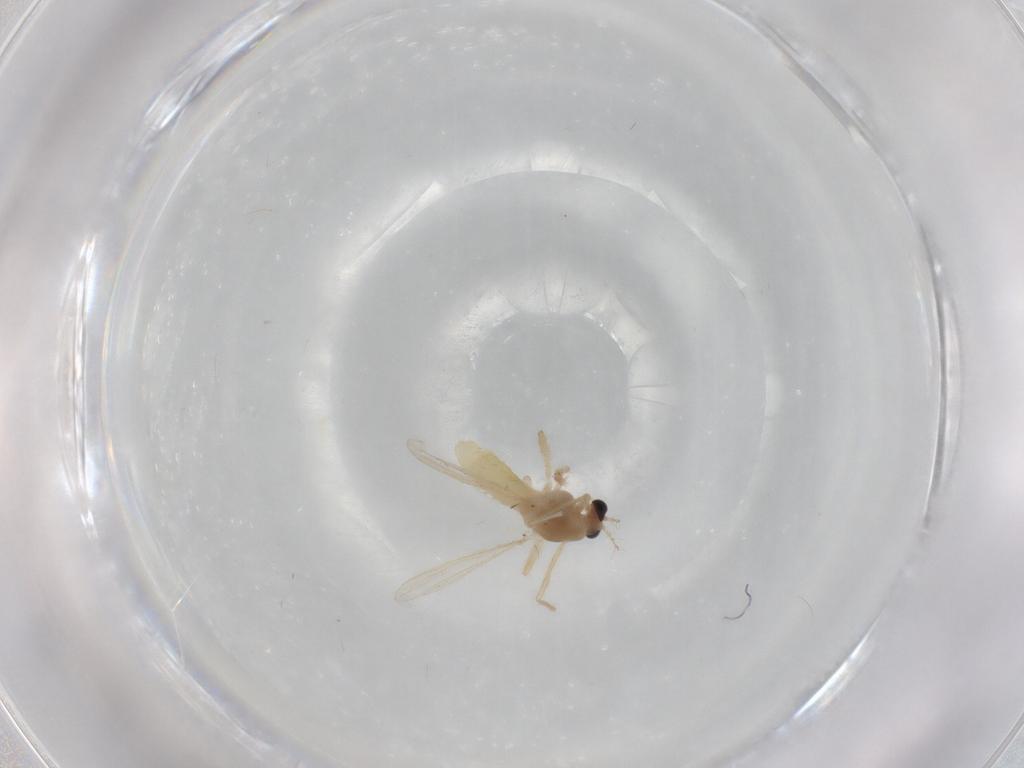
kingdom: Animalia
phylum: Arthropoda
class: Insecta
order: Diptera
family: Chironomidae
